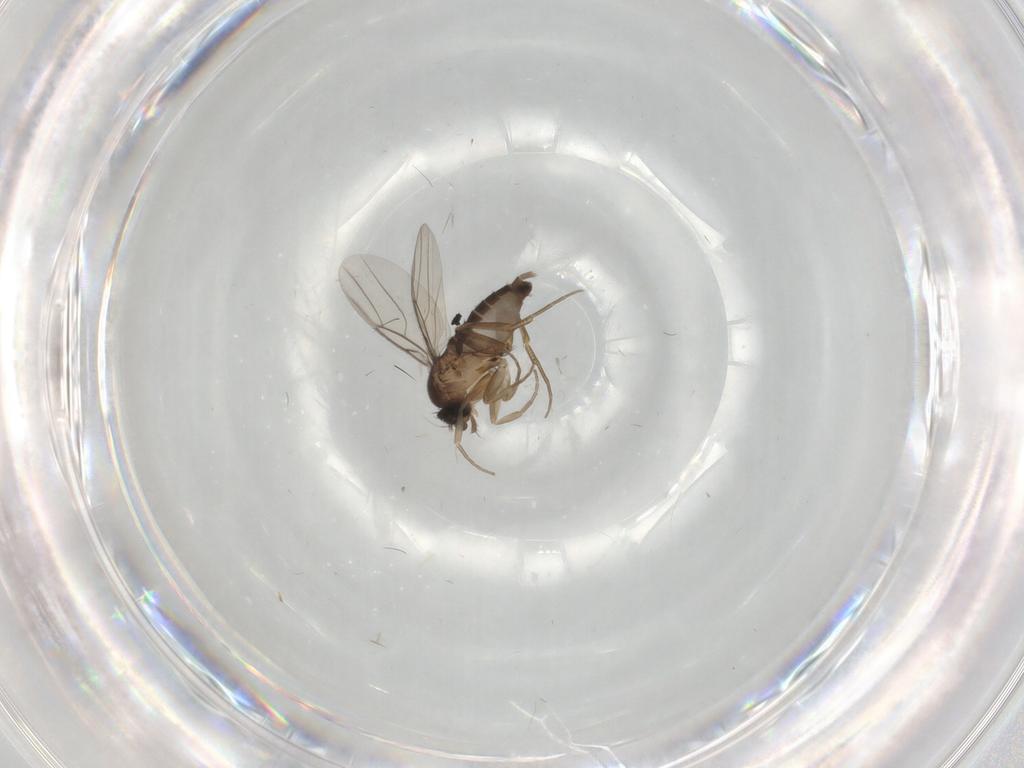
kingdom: Animalia
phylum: Arthropoda
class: Insecta
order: Diptera
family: Phoridae
